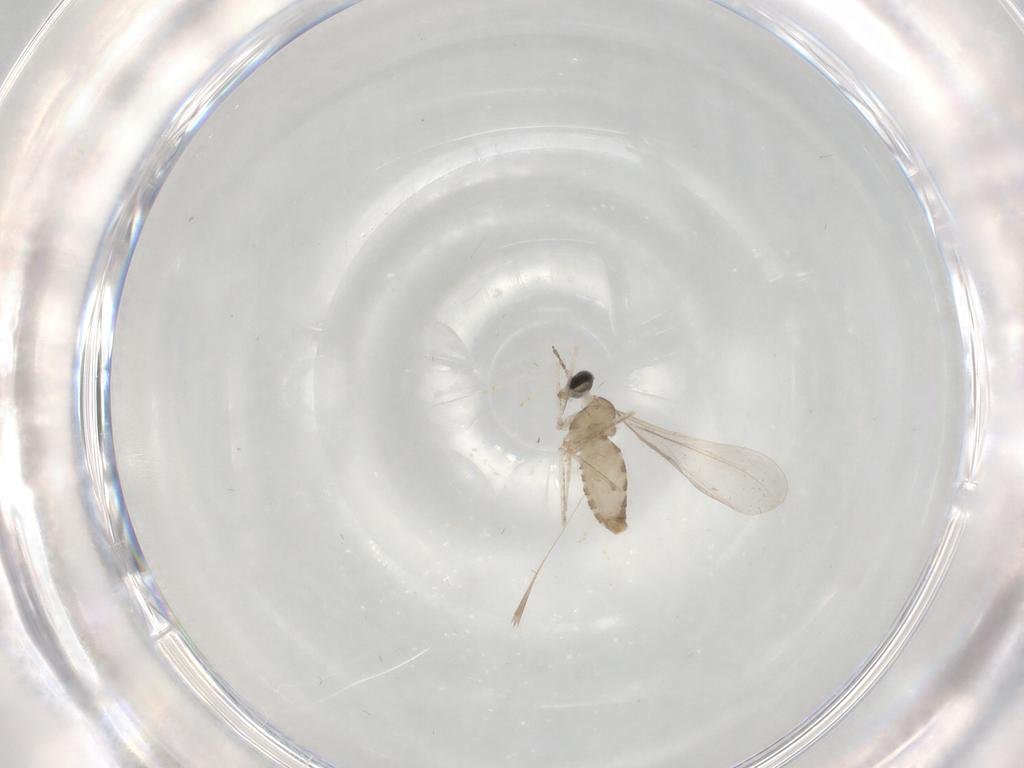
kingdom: Animalia
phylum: Arthropoda
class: Insecta
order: Diptera
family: Cecidomyiidae
